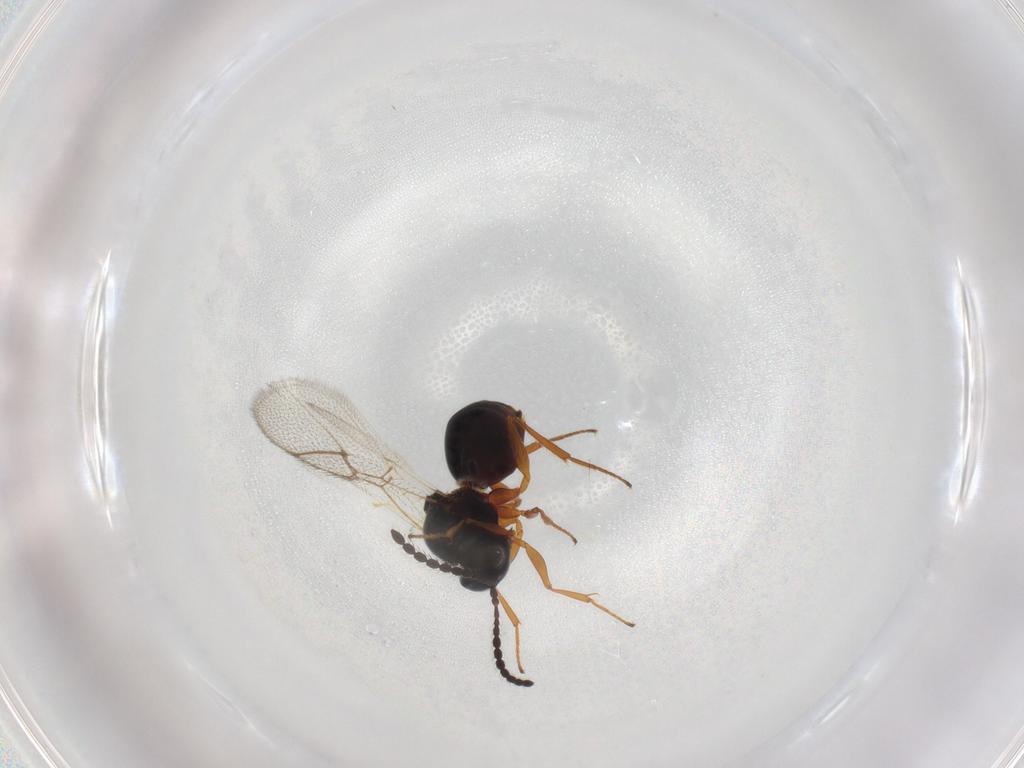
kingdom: Animalia
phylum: Arthropoda
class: Insecta
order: Hymenoptera
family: Figitidae
